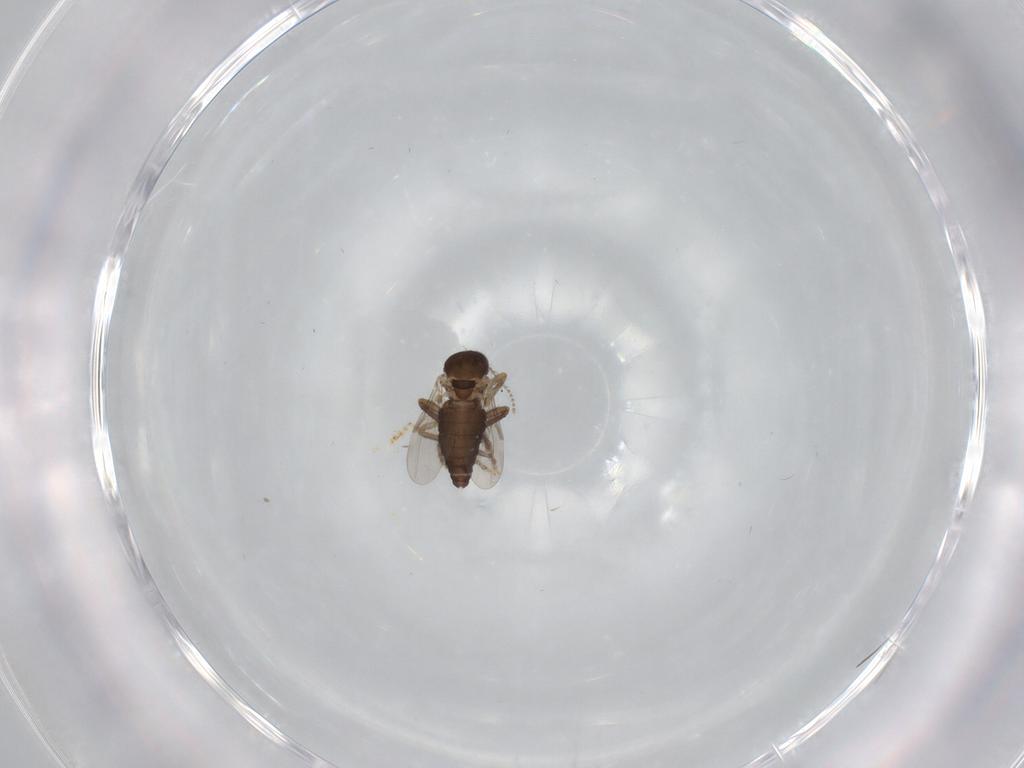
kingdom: Animalia
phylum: Arthropoda
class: Insecta
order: Diptera
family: Ceratopogonidae
